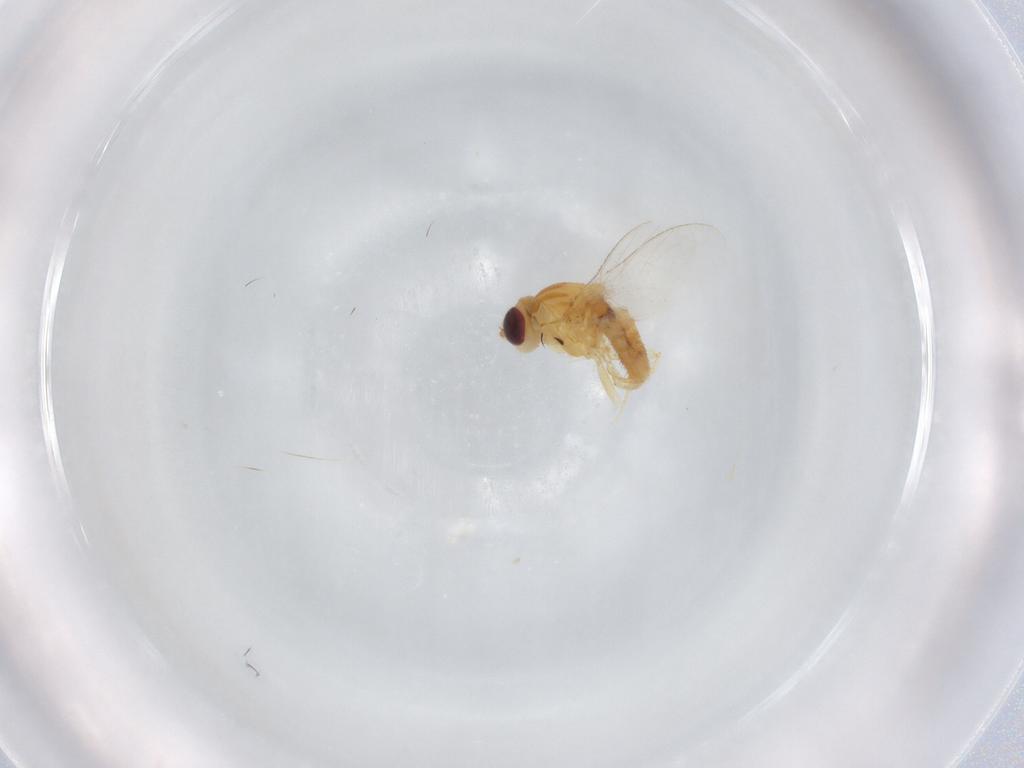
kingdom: Animalia
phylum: Arthropoda
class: Insecta
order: Diptera
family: Chloropidae
